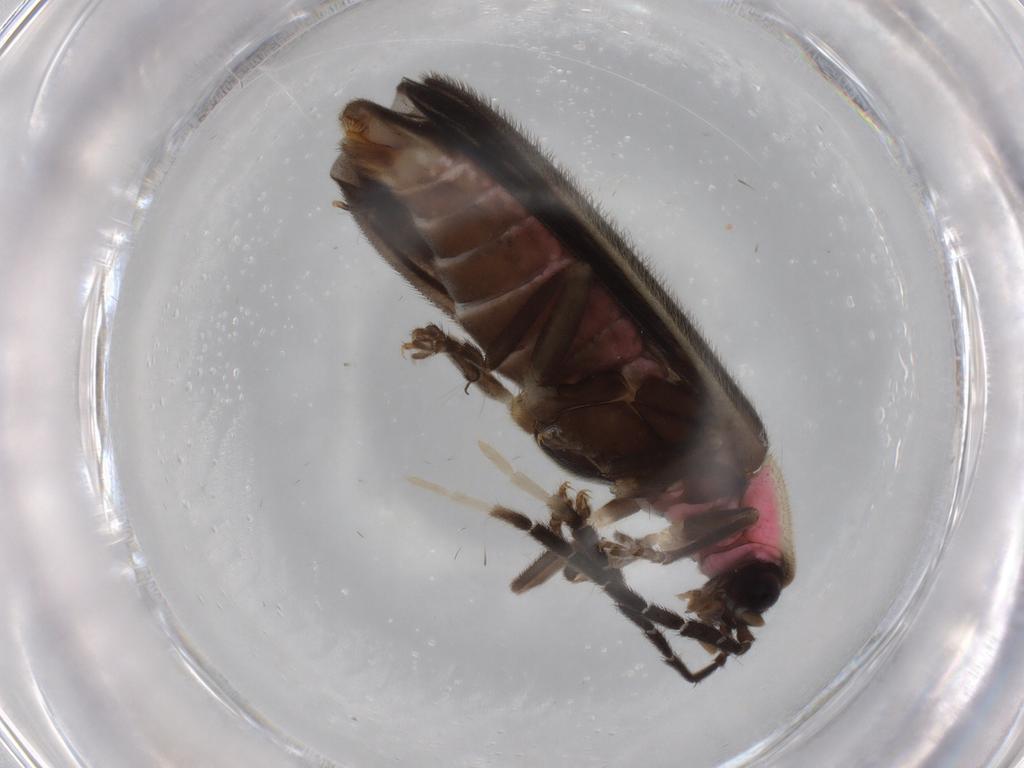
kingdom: Animalia
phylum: Arthropoda
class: Insecta
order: Coleoptera
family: Lampyridae
